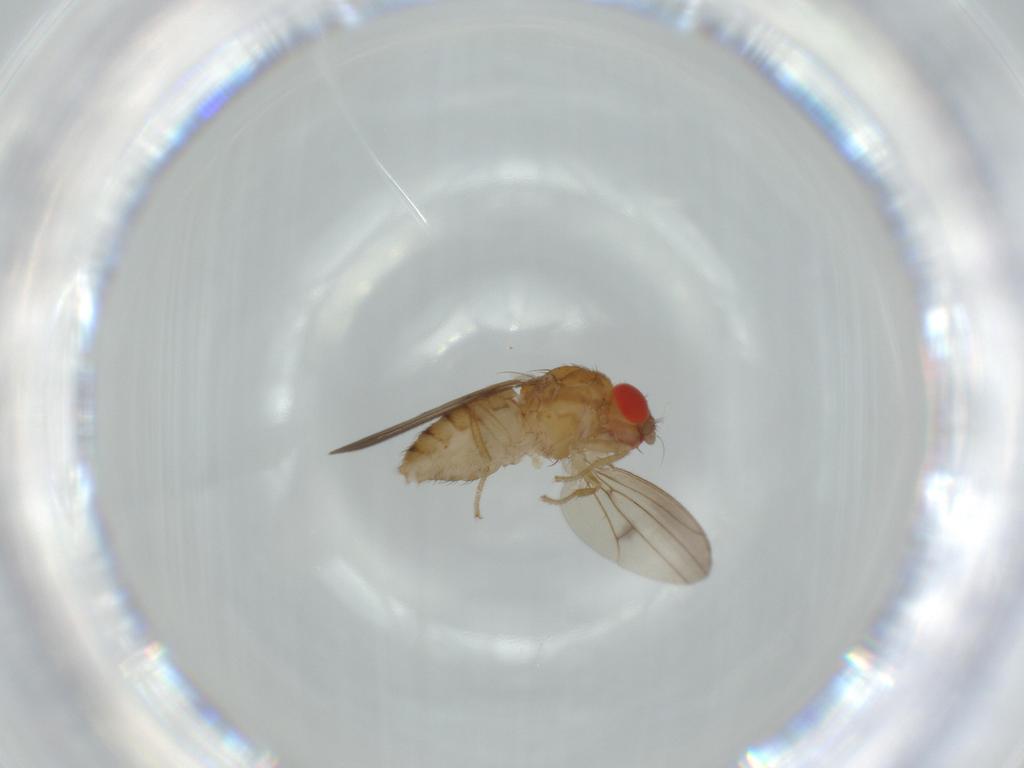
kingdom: Animalia
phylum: Arthropoda
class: Insecta
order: Diptera
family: Drosophilidae
